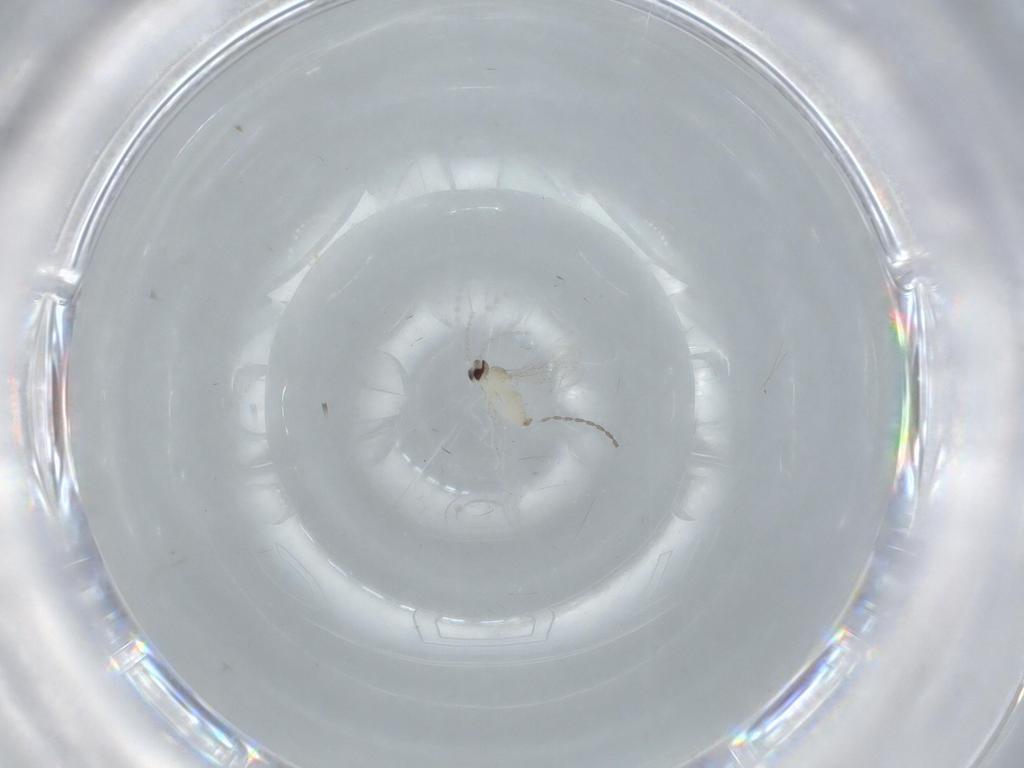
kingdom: Animalia
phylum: Arthropoda
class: Insecta
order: Diptera
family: Cecidomyiidae
